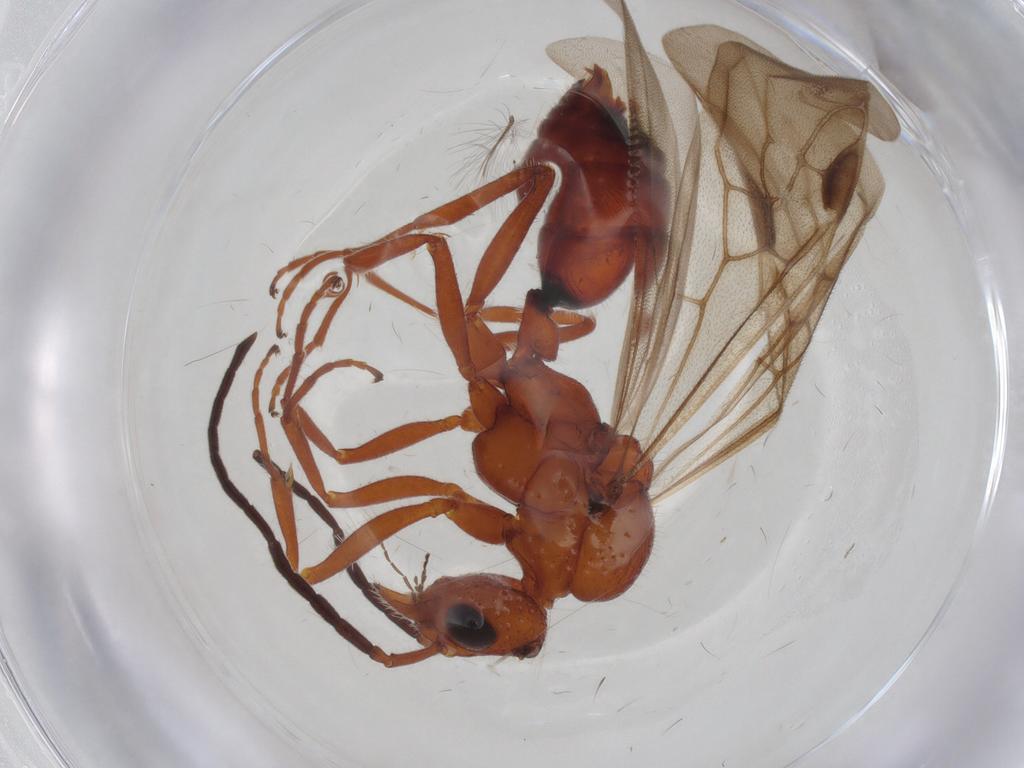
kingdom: Animalia
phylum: Arthropoda
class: Insecta
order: Hymenoptera
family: Formicidae
